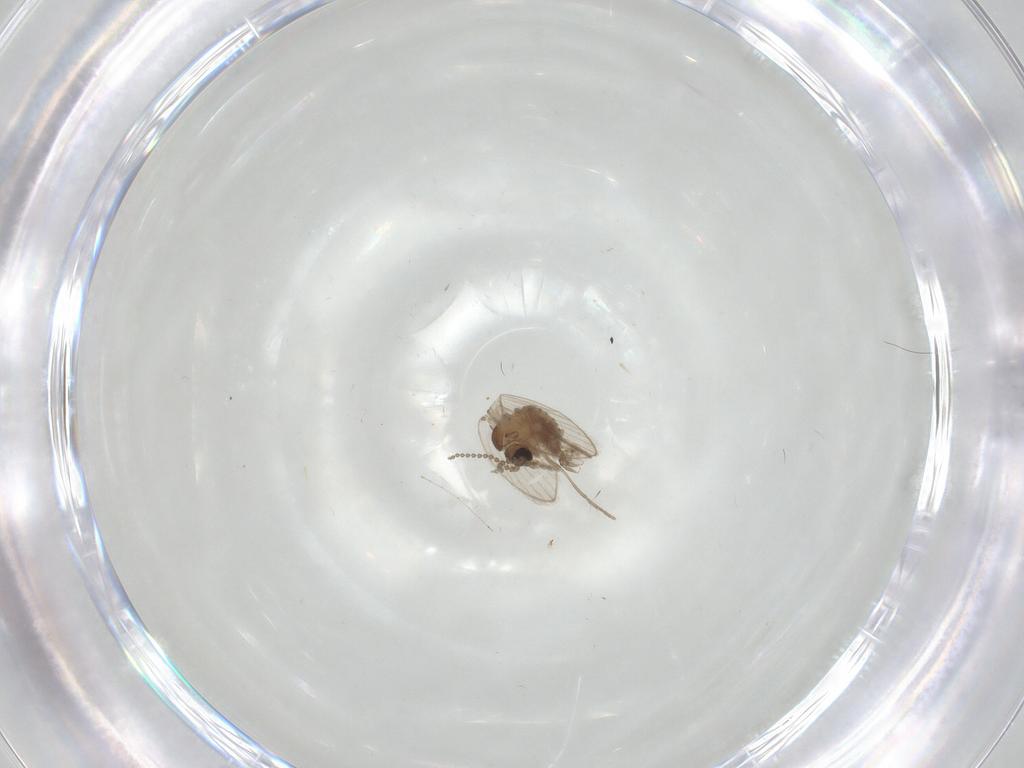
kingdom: Animalia
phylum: Arthropoda
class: Insecta
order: Diptera
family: Psychodidae
